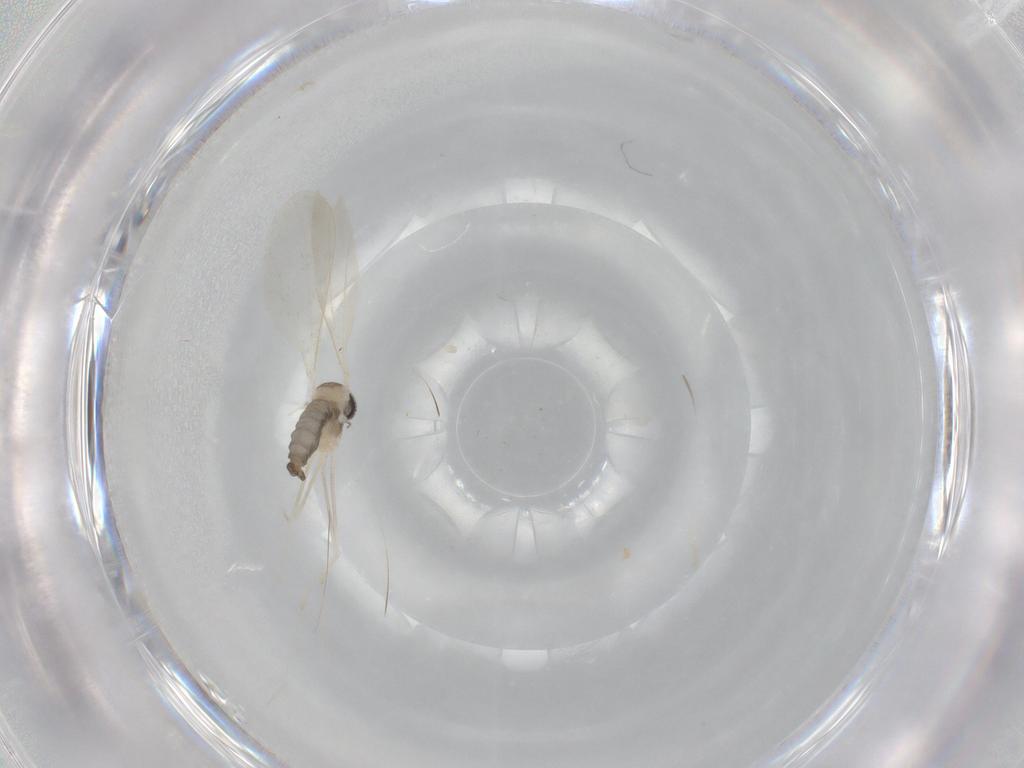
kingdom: Animalia
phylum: Arthropoda
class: Insecta
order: Diptera
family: Cecidomyiidae
